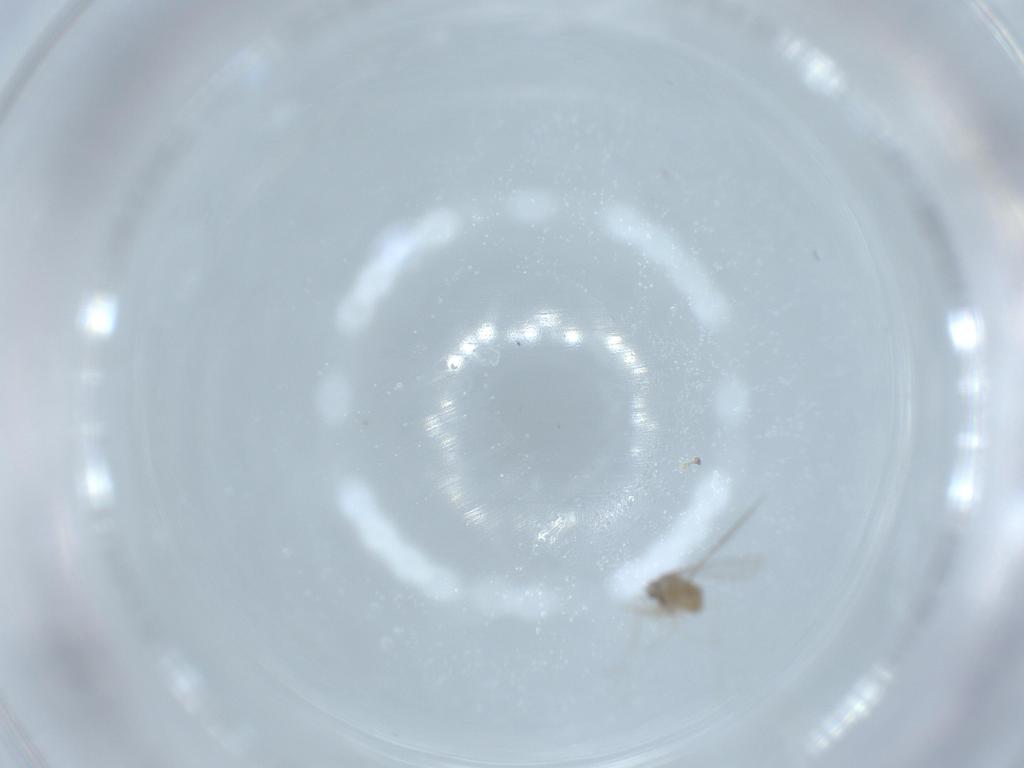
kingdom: Animalia
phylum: Arthropoda
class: Insecta
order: Diptera
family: Cecidomyiidae
